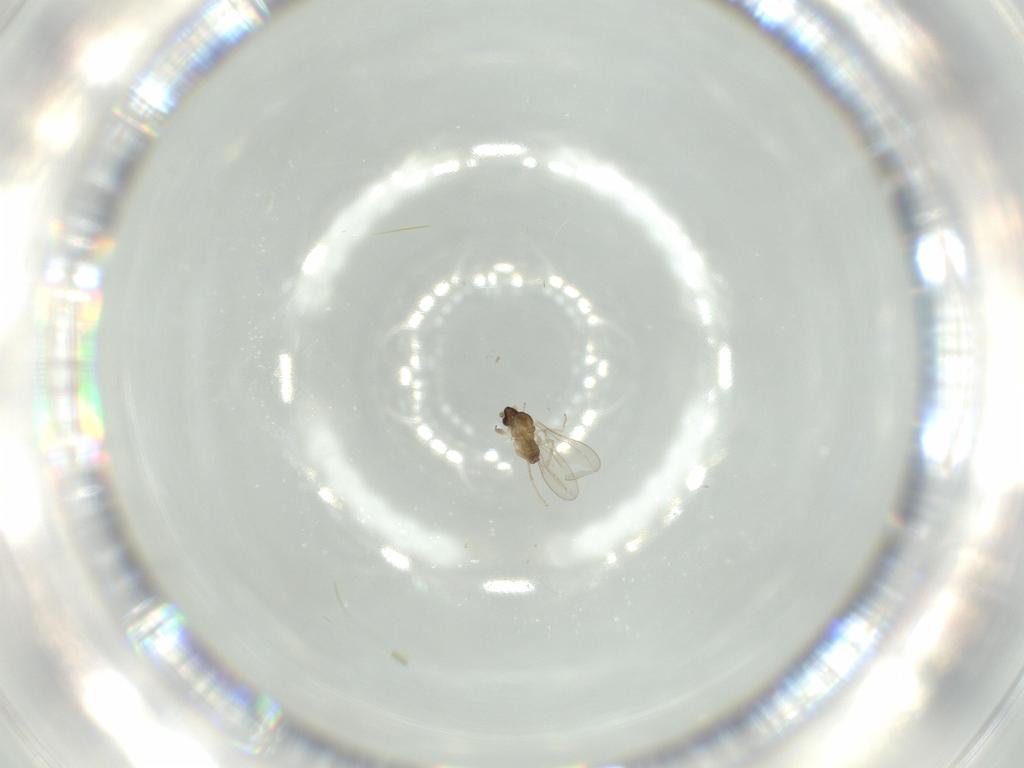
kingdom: Animalia
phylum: Arthropoda
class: Insecta
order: Diptera
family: Cecidomyiidae
